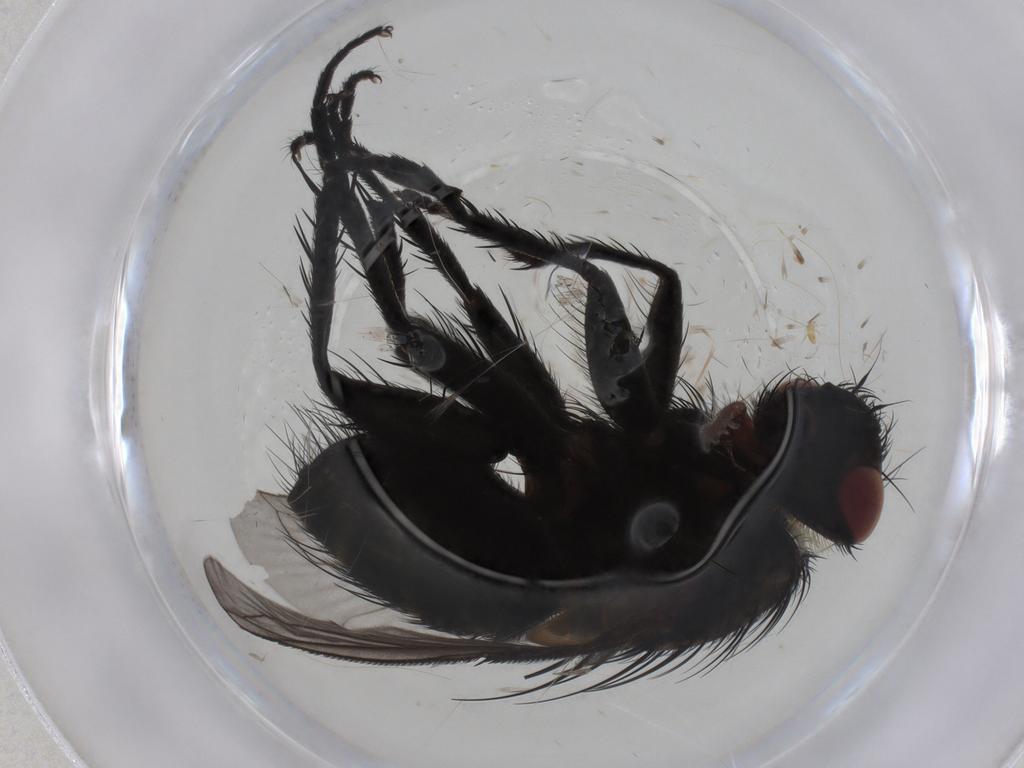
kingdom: Animalia
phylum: Arthropoda
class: Insecta
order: Diptera
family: Tachinidae
